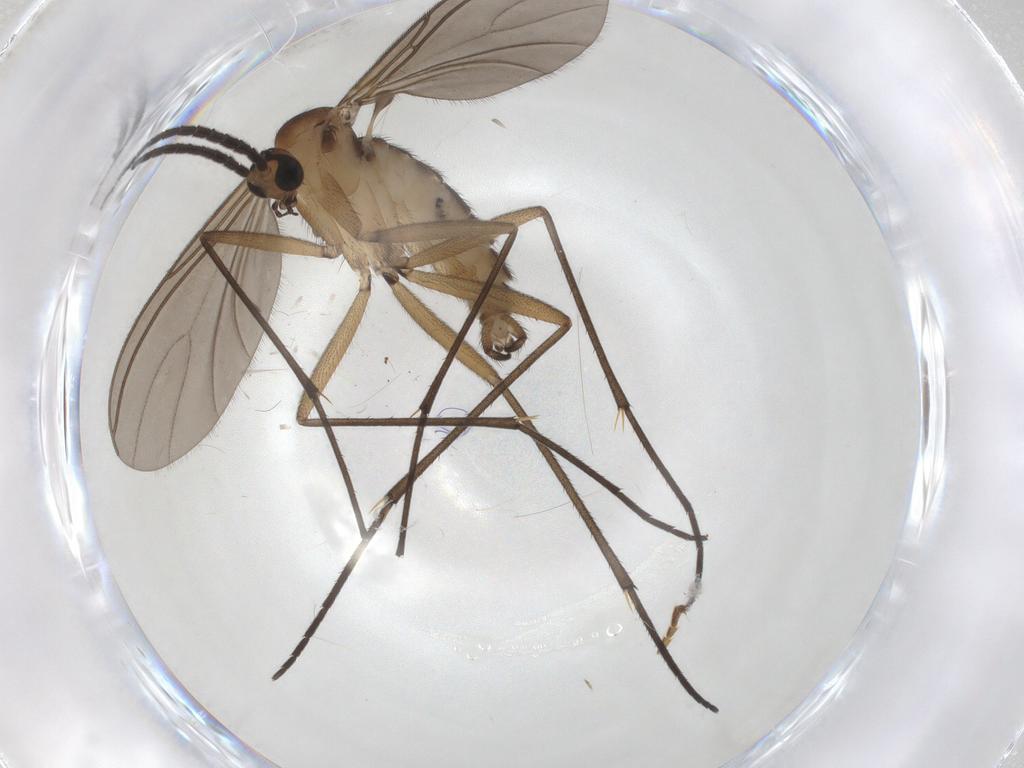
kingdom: Animalia
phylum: Arthropoda
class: Insecta
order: Diptera
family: Sciaridae
